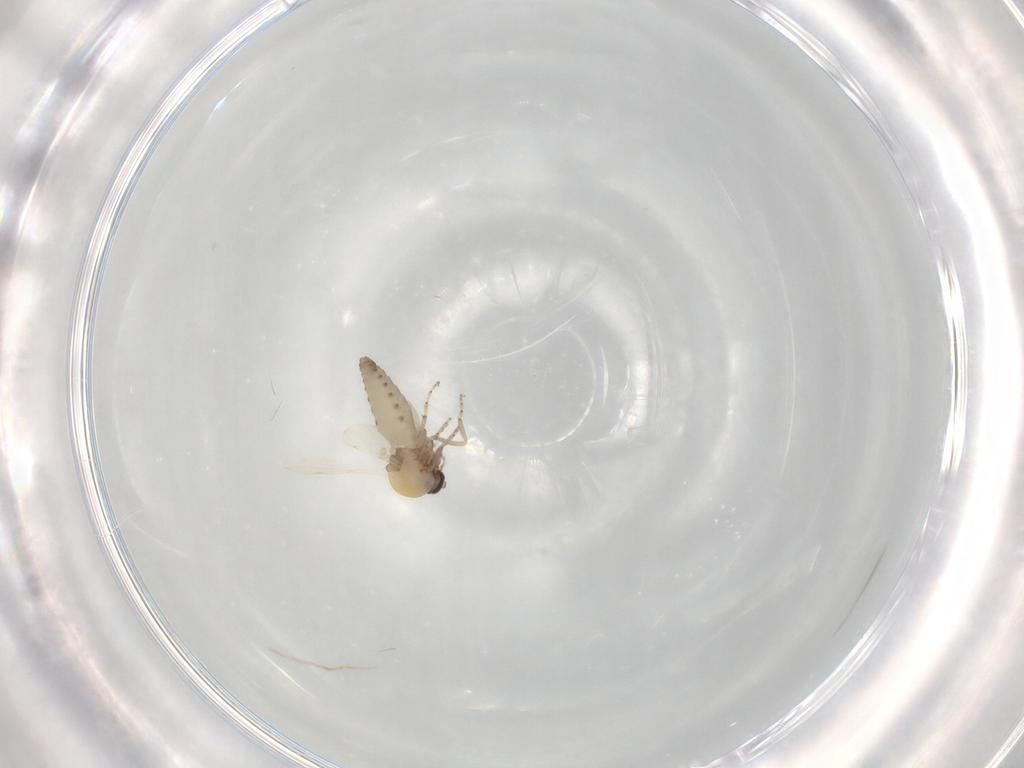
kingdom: Animalia
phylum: Arthropoda
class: Insecta
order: Diptera
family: Ceratopogonidae
